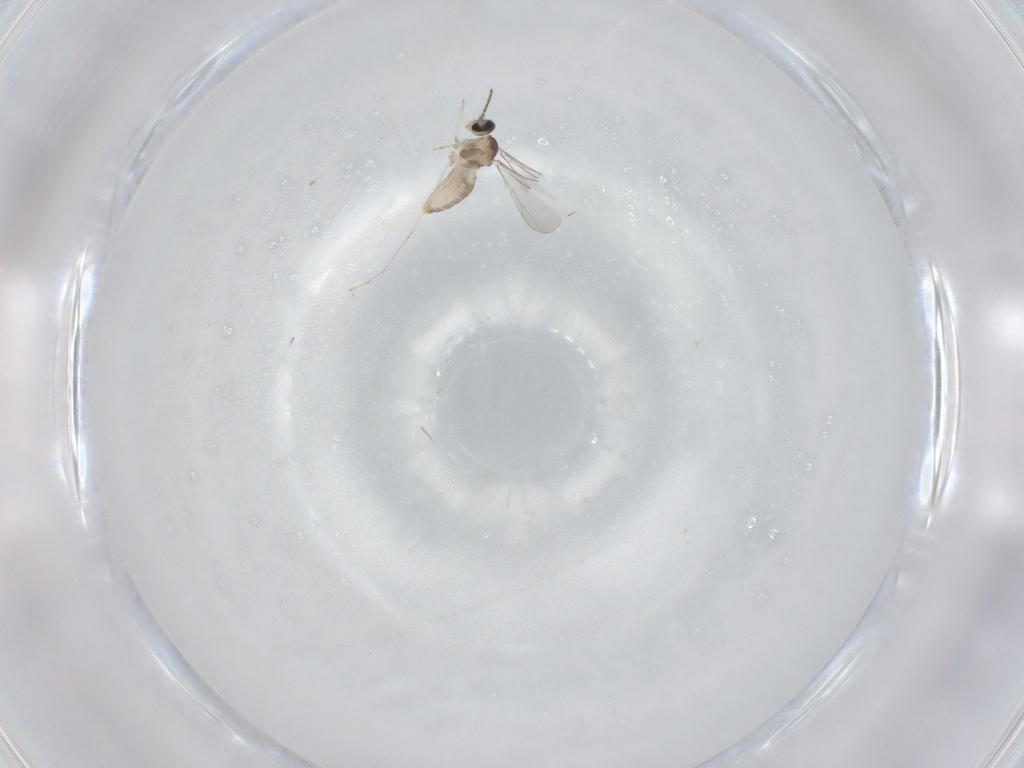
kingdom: Animalia
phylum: Arthropoda
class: Insecta
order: Diptera
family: Cecidomyiidae
